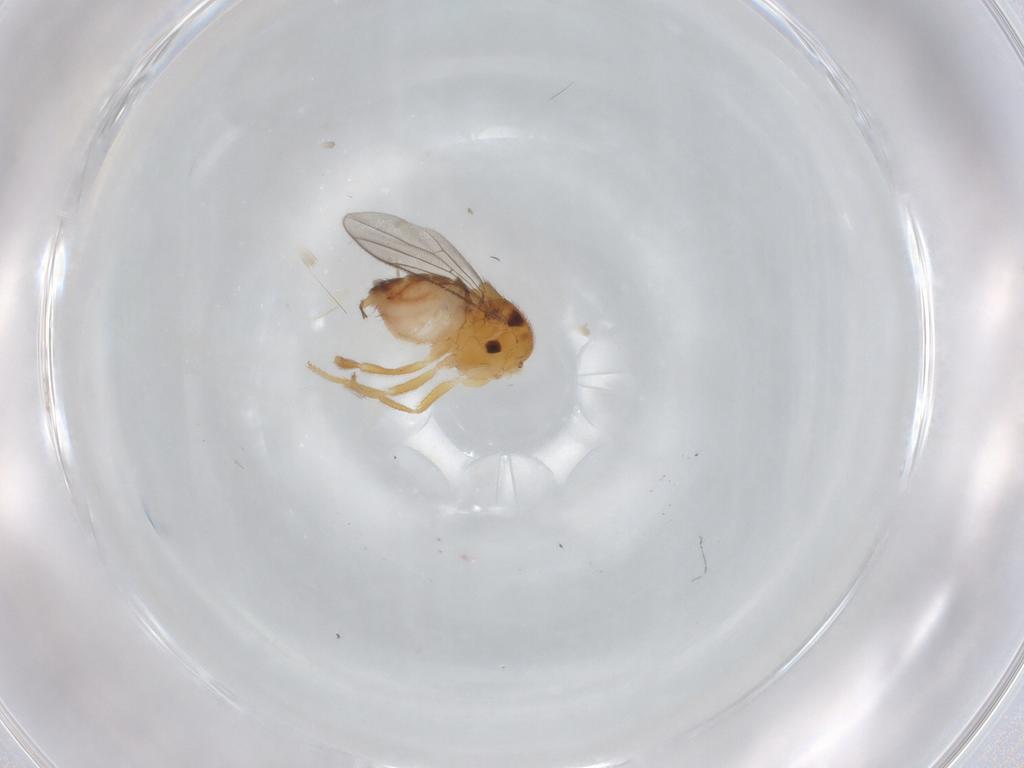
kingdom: Animalia
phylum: Arthropoda
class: Insecta
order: Diptera
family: Chloropidae
